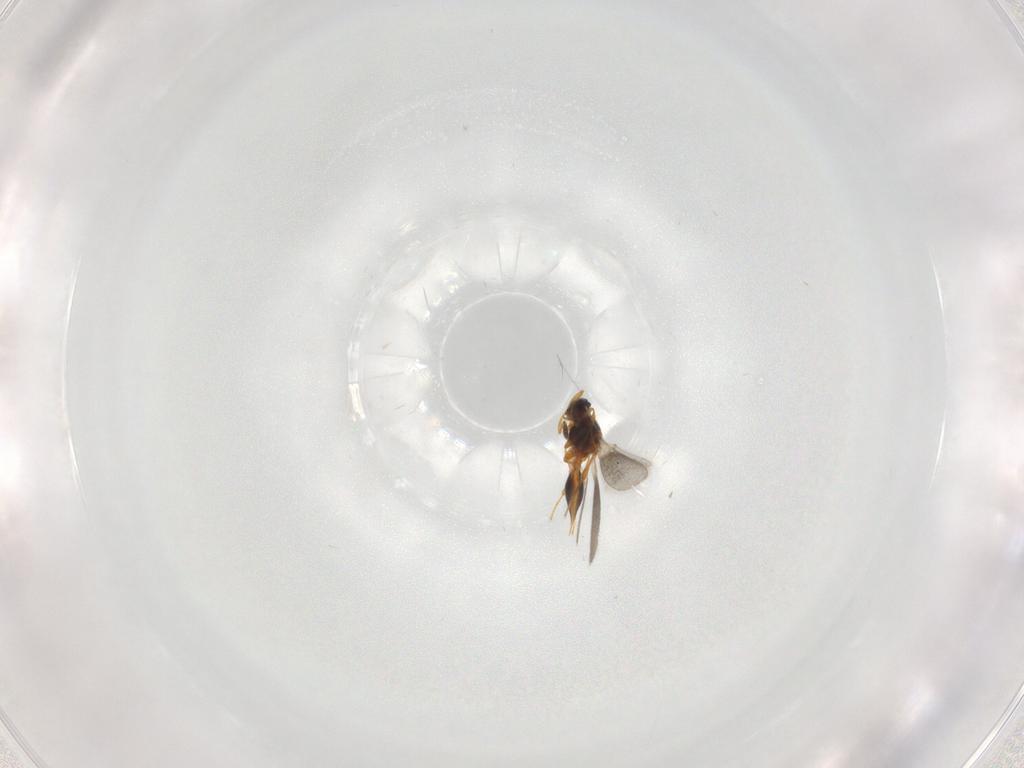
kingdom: Animalia
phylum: Arthropoda
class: Insecta
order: Hymenoptera
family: Platygastridae
